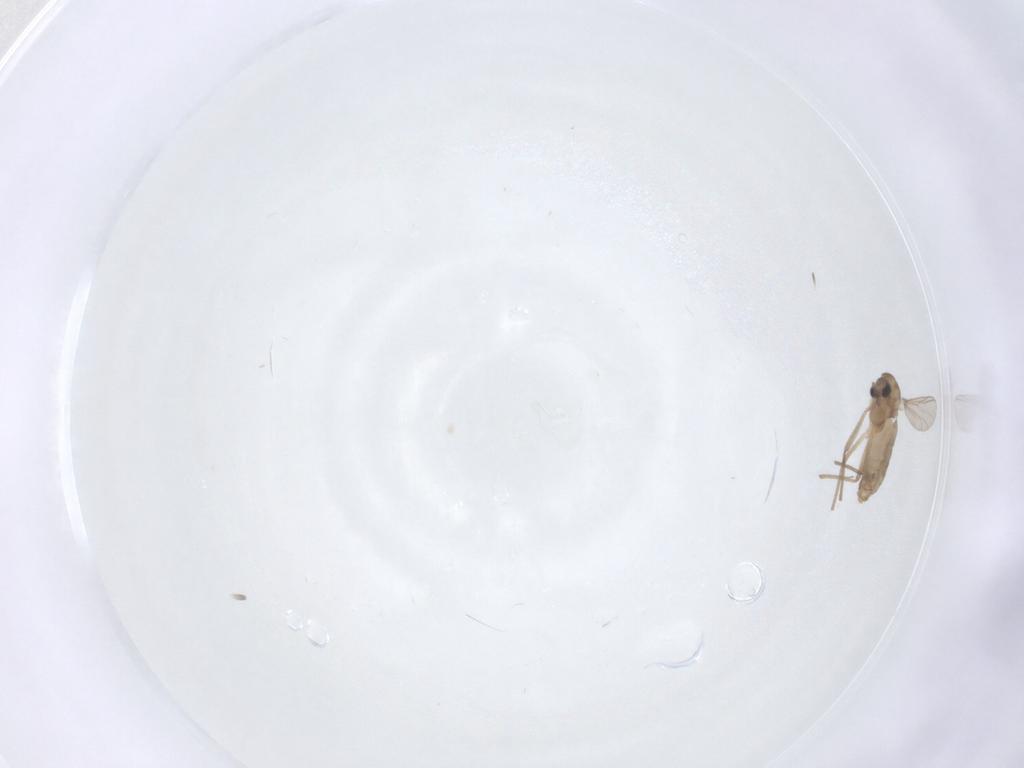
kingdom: Animalia
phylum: Arthropoda
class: Insecta
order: Diptera
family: Chironomidae
